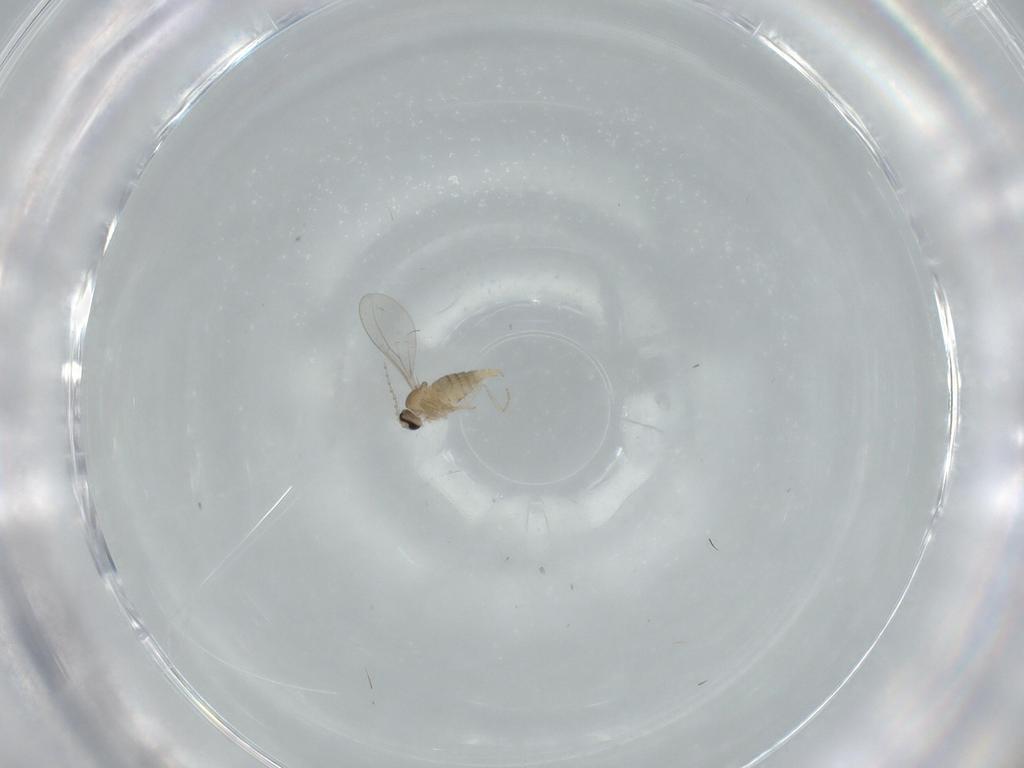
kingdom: Animalia
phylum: Arthropoda
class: Insecta
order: Diptera
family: Cecidomyiidae
